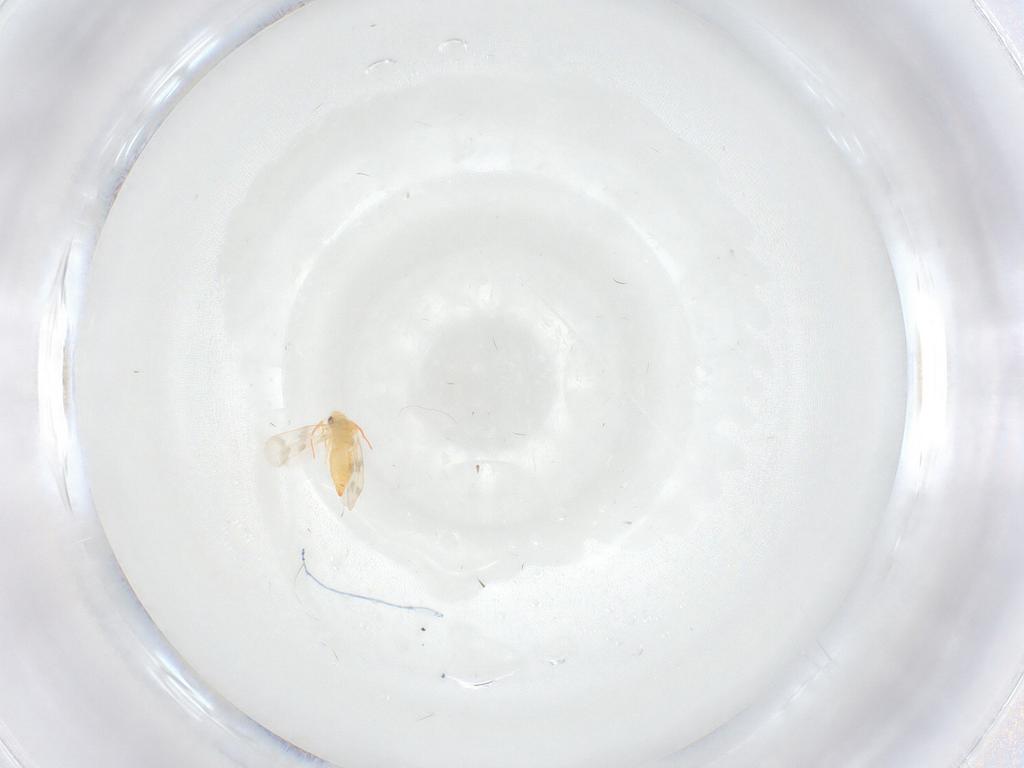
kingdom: Animalia
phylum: Arthropoda
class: Insecta
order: Hemiptera
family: Aleyrodidae
